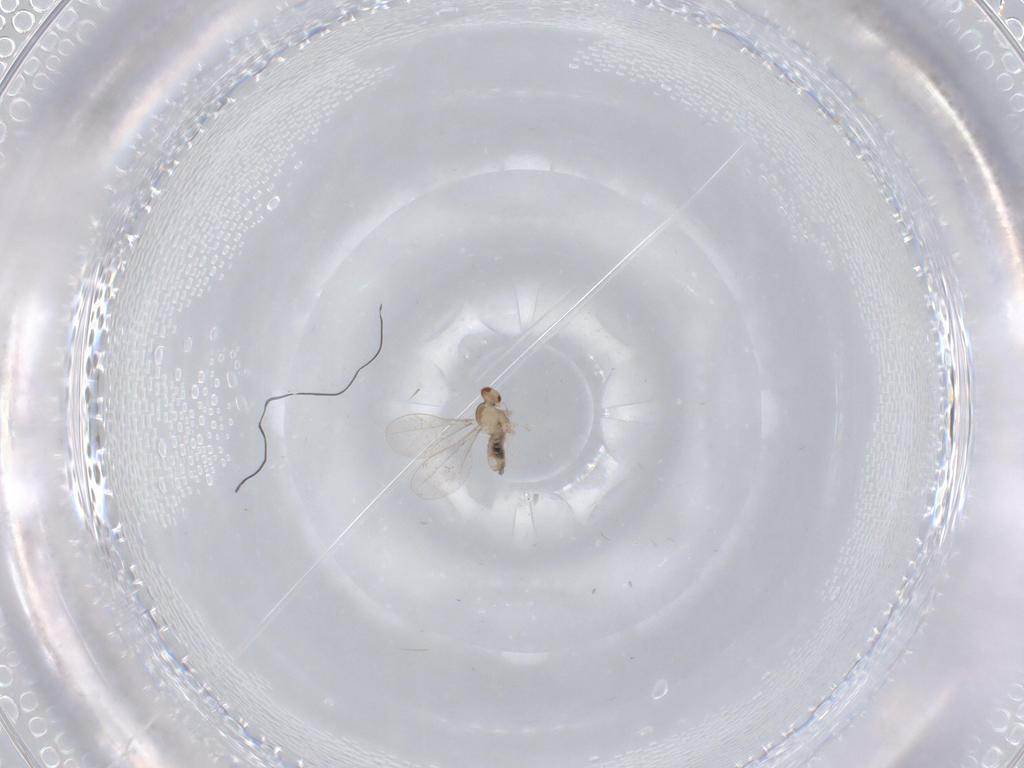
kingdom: Animalia
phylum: Arthropoda
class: Insecta
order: Diptera
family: Cecidomyiidae
